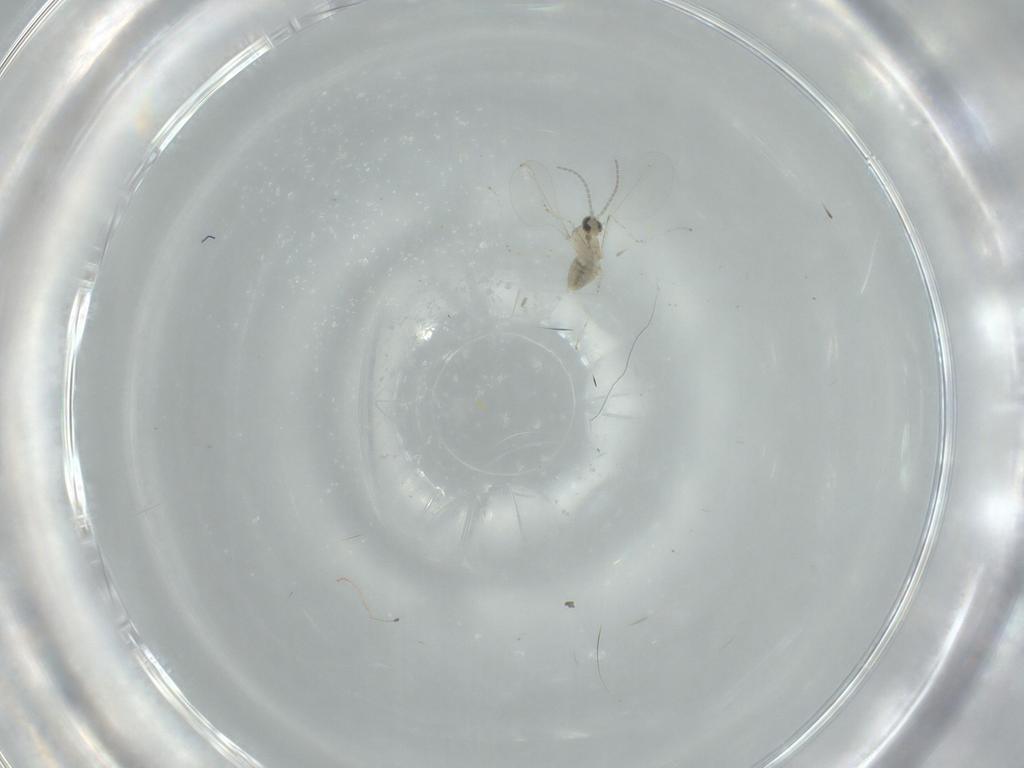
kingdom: Animalia
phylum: Arthropoda
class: Insecta
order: Diptera
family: Cecidomyiidae
